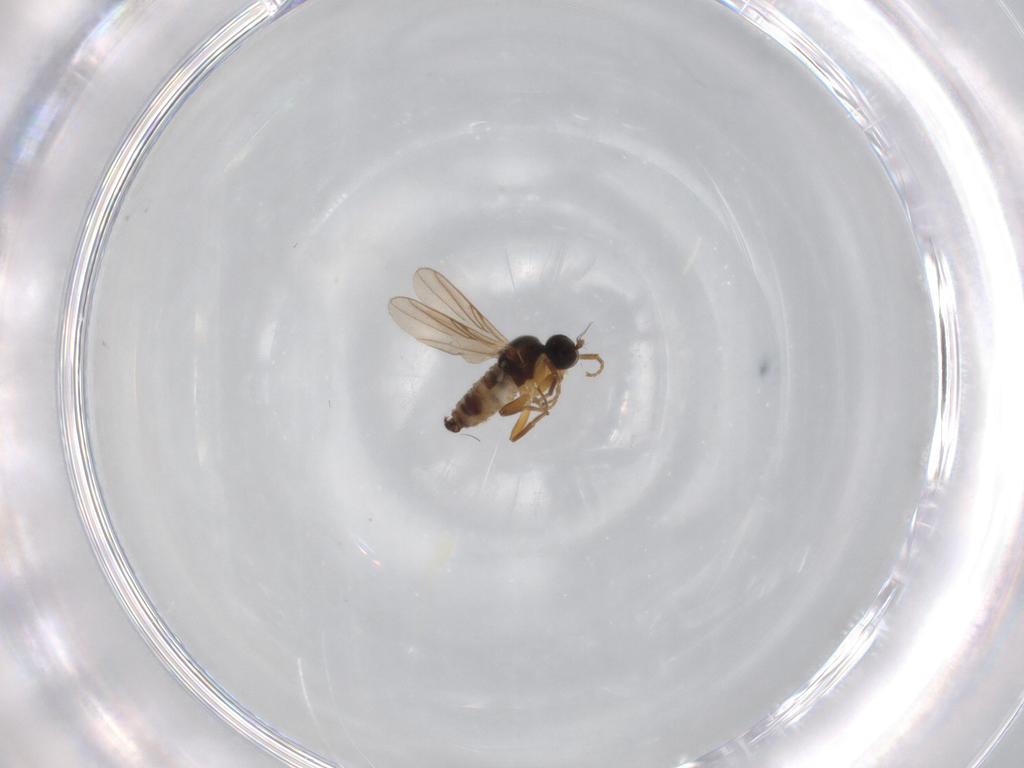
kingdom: Animalia
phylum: Arthropoda
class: Insecta
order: Diptera
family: Hybotidae
